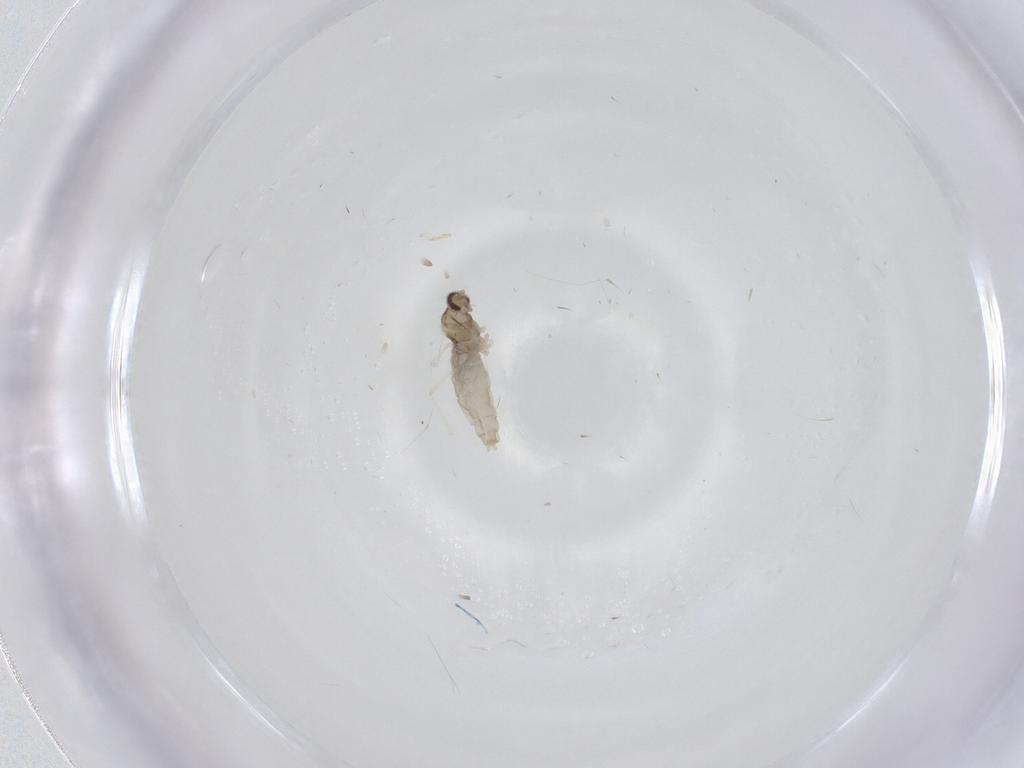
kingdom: Animalia
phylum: Arthropoda
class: Insecta
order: Diptera
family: Cecidomyiidae
